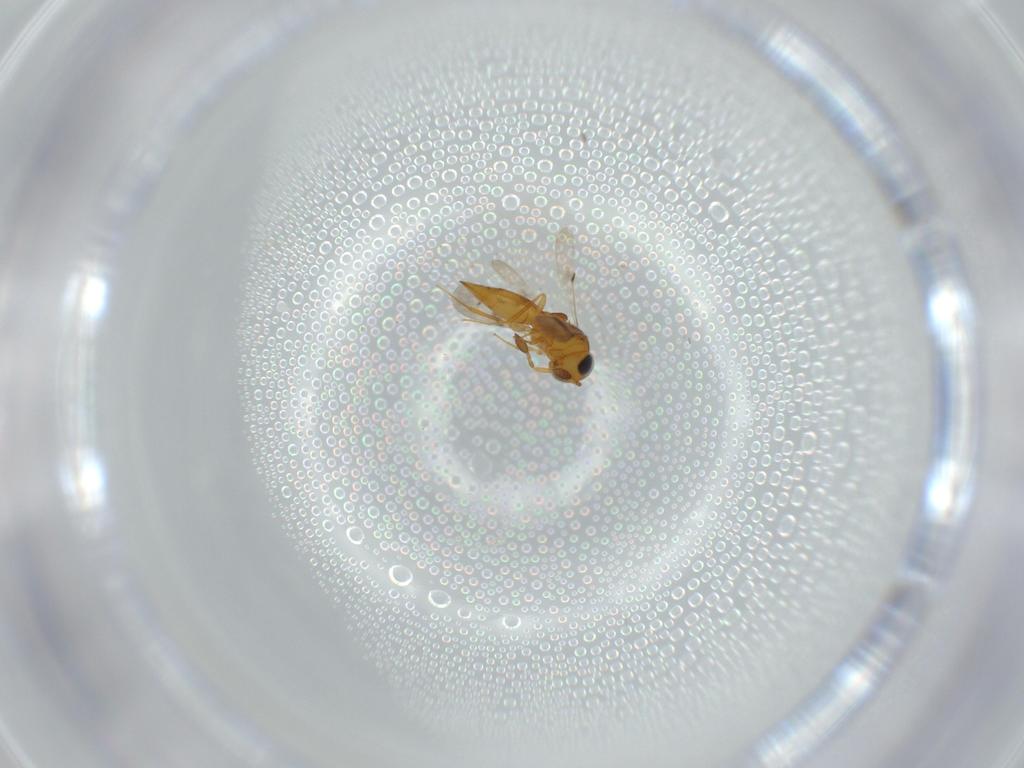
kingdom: Animalia
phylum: Arthropoda
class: Insecta
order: Hymenoptera
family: Scelionidae
